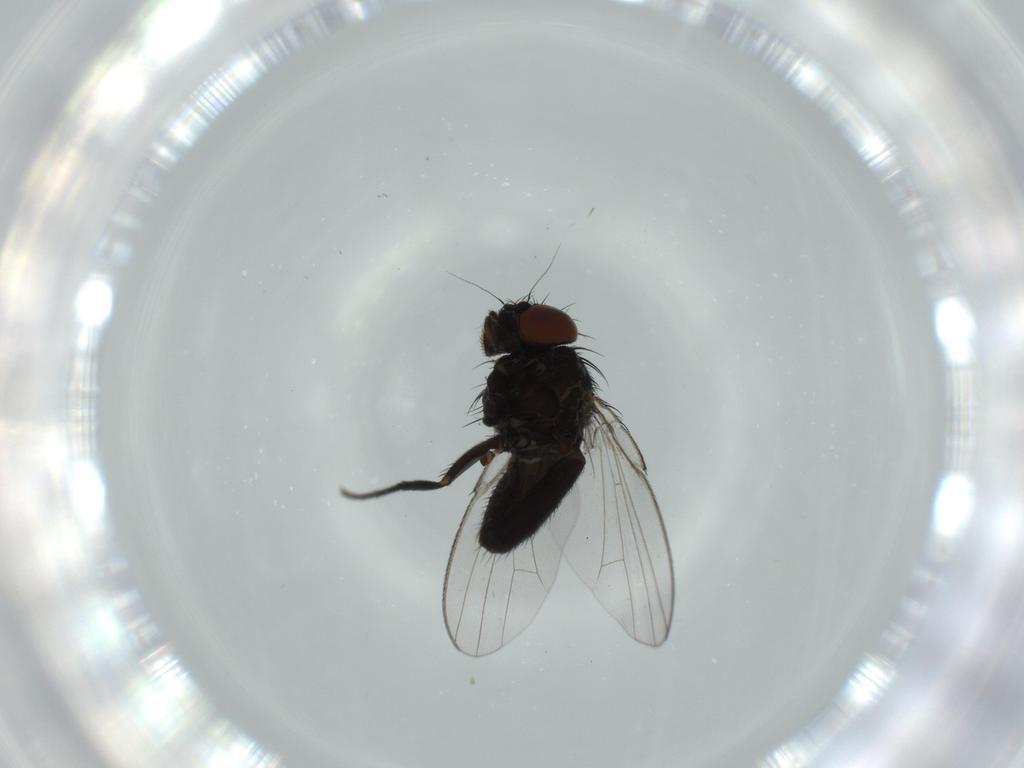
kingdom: Animalia
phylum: Arthropoda
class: Insecta
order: Diptera
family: Milichiidae
